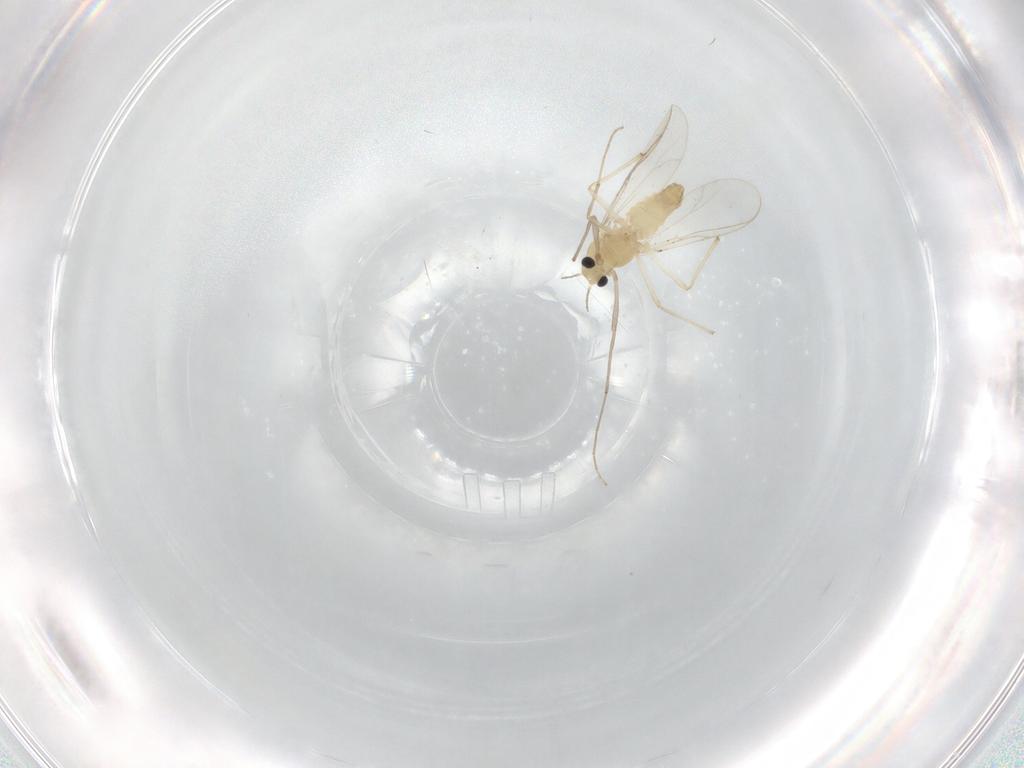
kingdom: Animalia
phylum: Arthropoda
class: Insecta
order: Diptera
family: Chironomidae
